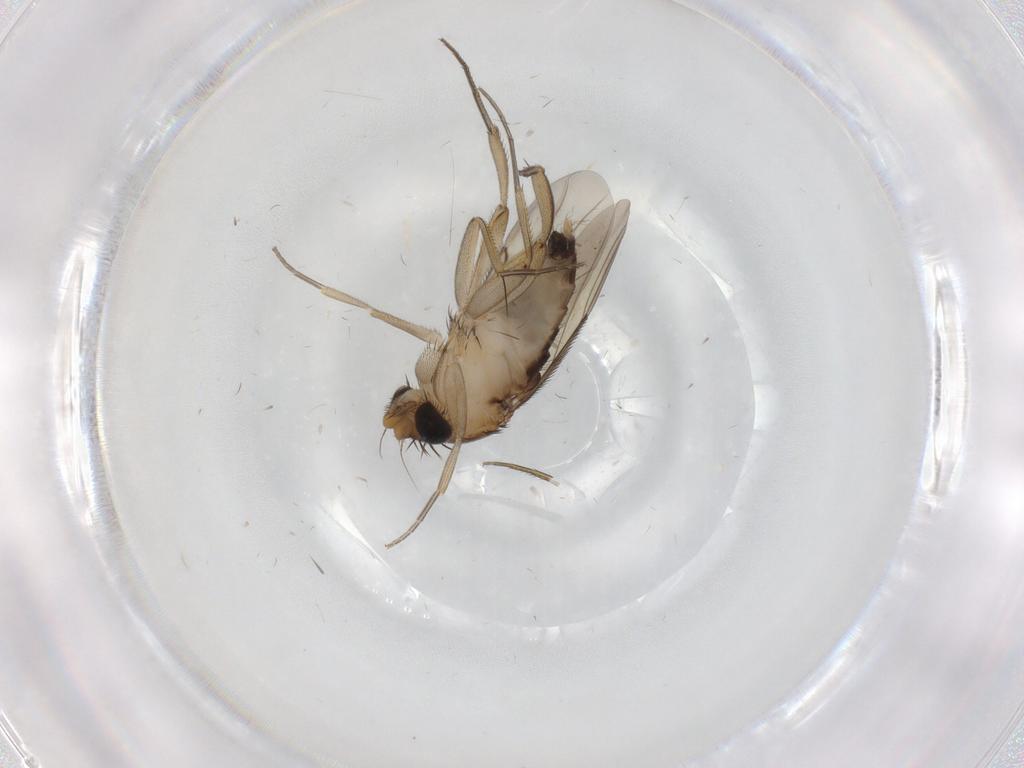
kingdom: Animalia
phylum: Arthropoda
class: Insecta
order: Diptera
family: Phoridae
